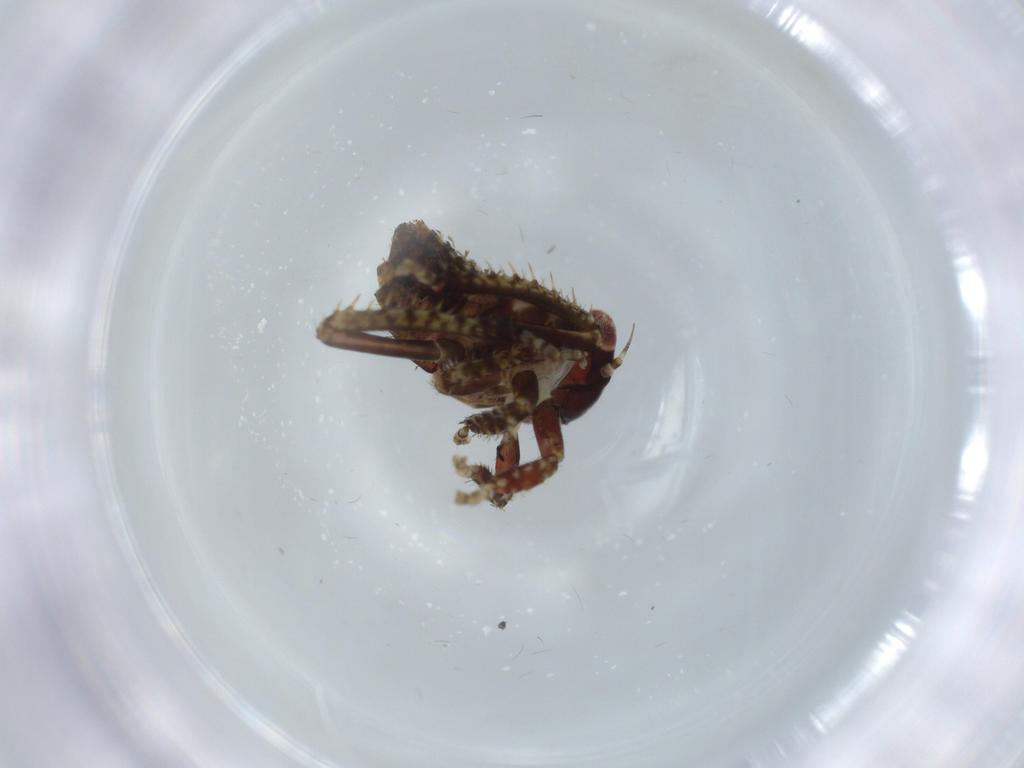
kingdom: Animalia
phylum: Arthropoda
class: Insecta
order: Hemiptera
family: Cicadellidae
